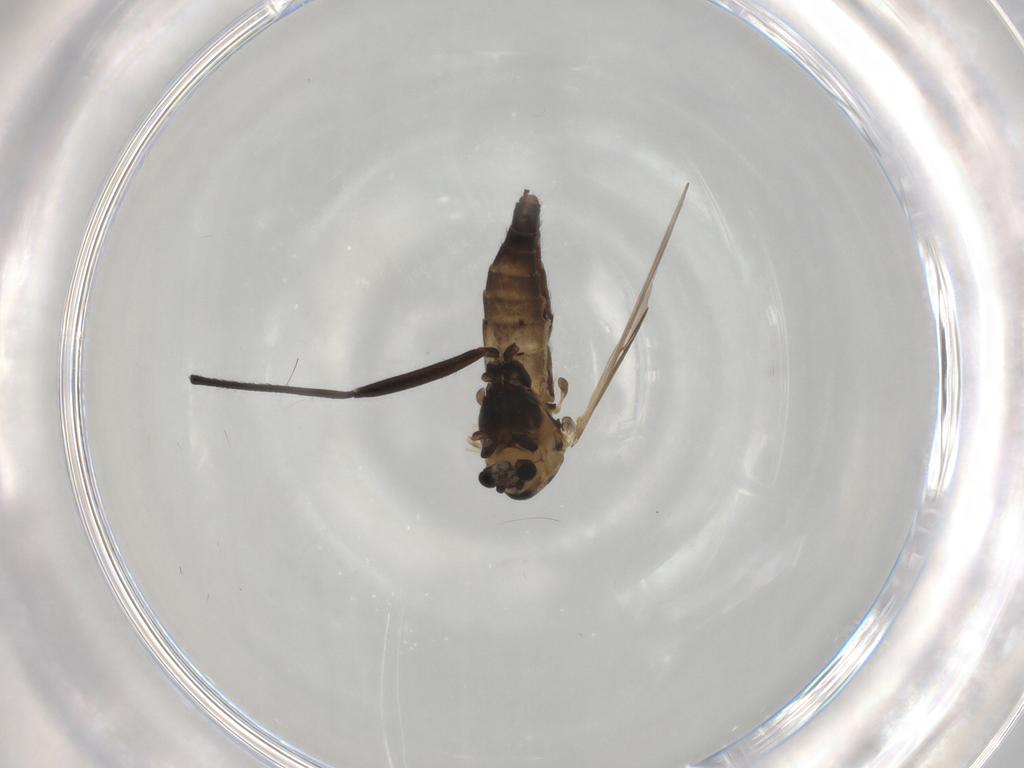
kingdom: Animalia
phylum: Arthropoda
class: Insecta
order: Diptera
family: Chironomidae
